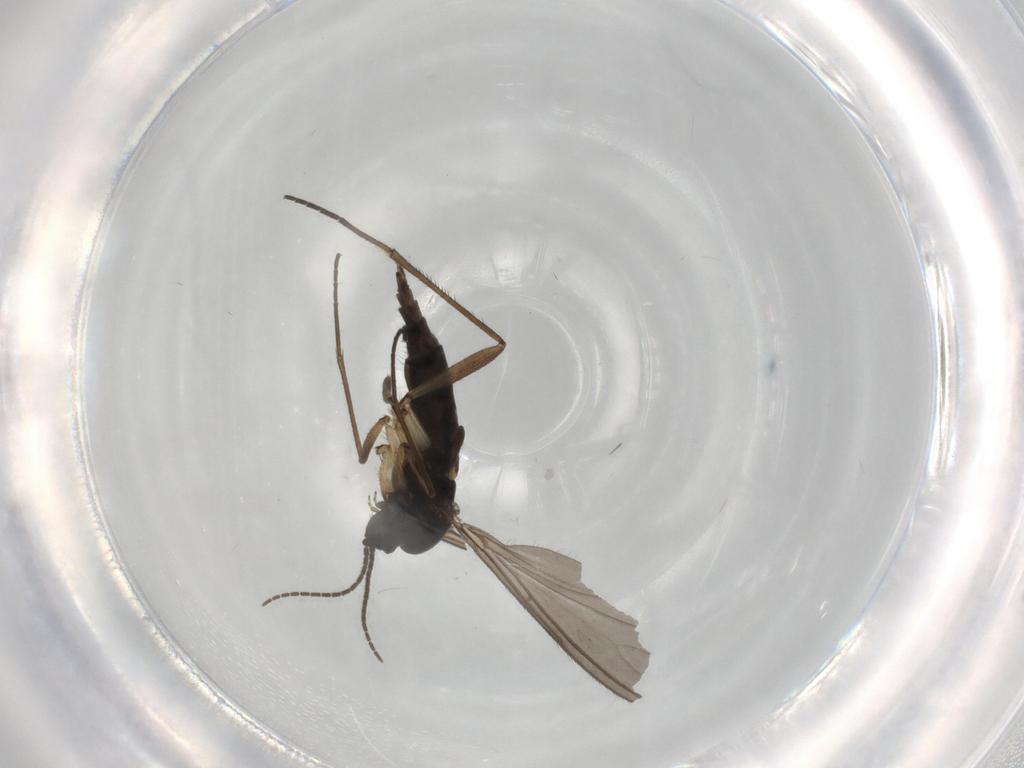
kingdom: Animalia
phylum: Arthropoda
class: Insecta
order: Diptera
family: Sciaridae
